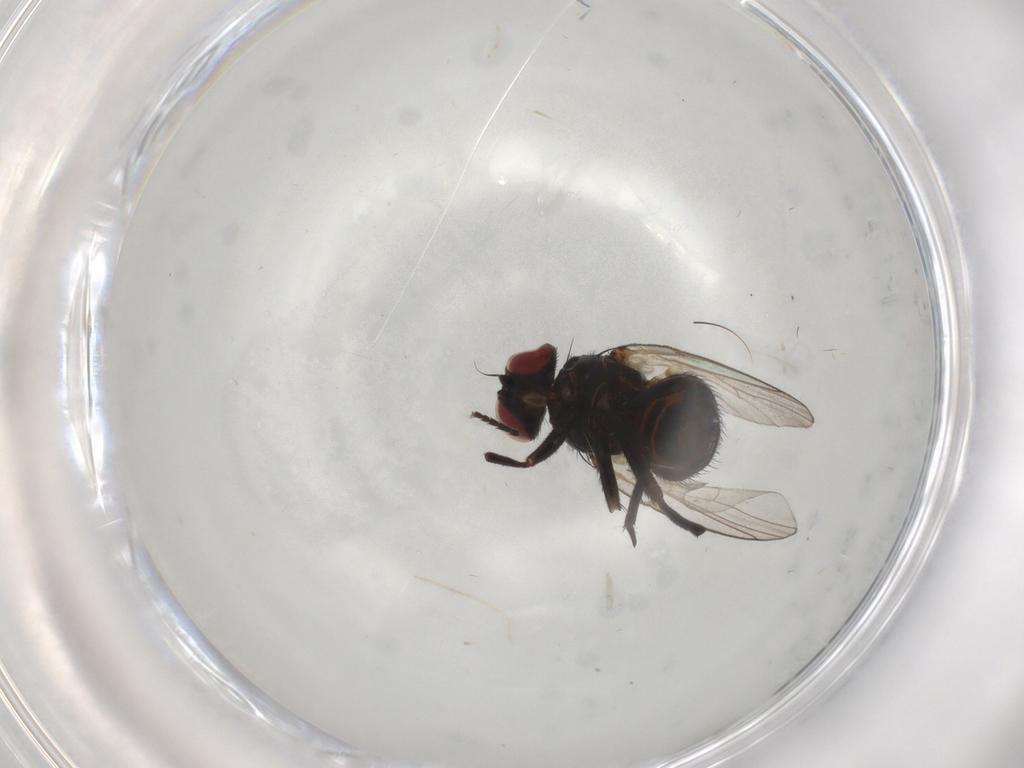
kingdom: Animalia
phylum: Arthropoda
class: Insecta
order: Diptera
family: Agromyzidae
